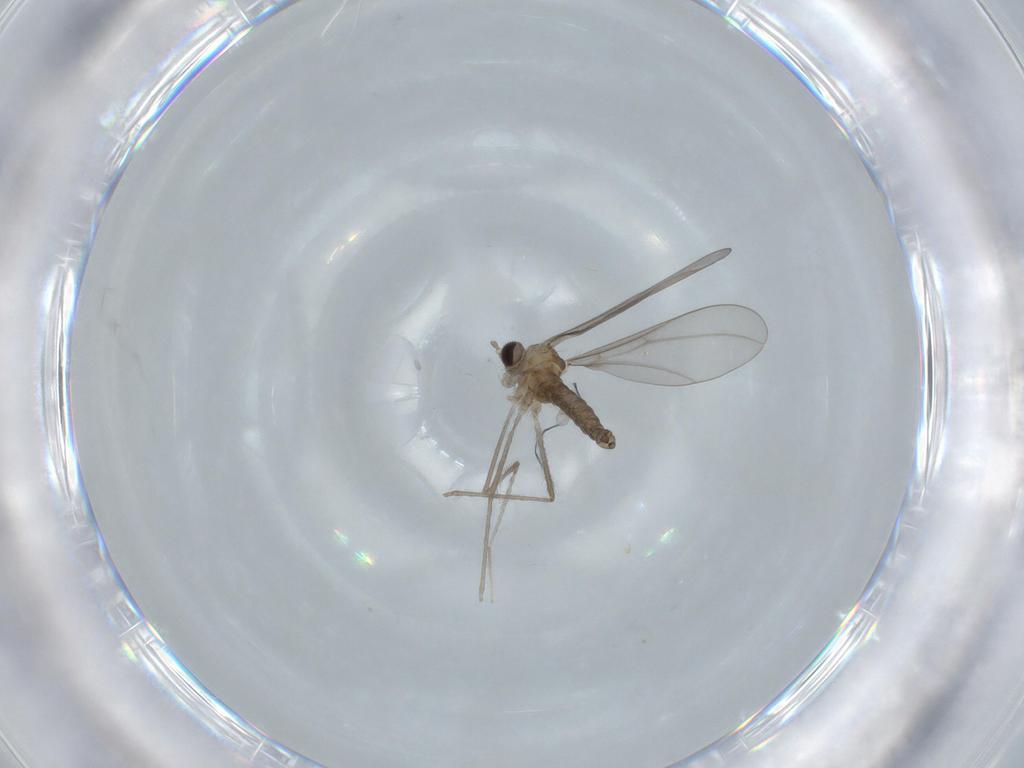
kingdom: Animalia
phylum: Arthropoda
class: Insecta
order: Diptera
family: Cecidomyiidae
